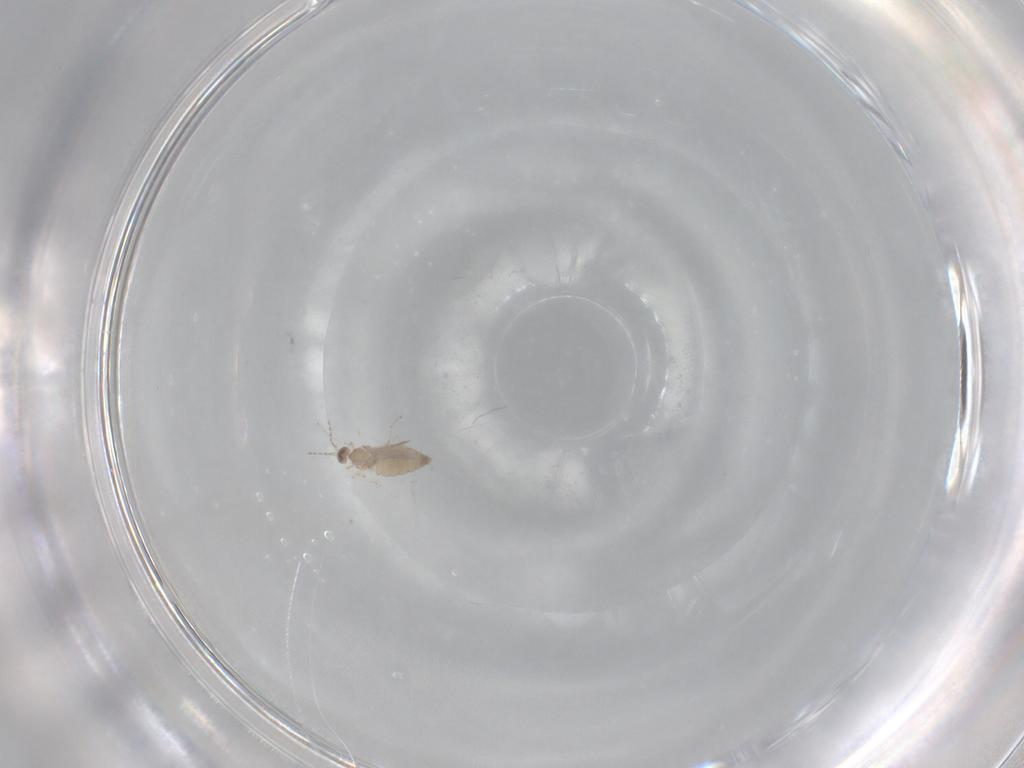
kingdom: Animalia
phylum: Arthropoda
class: Insecta
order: Diptera
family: Cecidomyiidae
